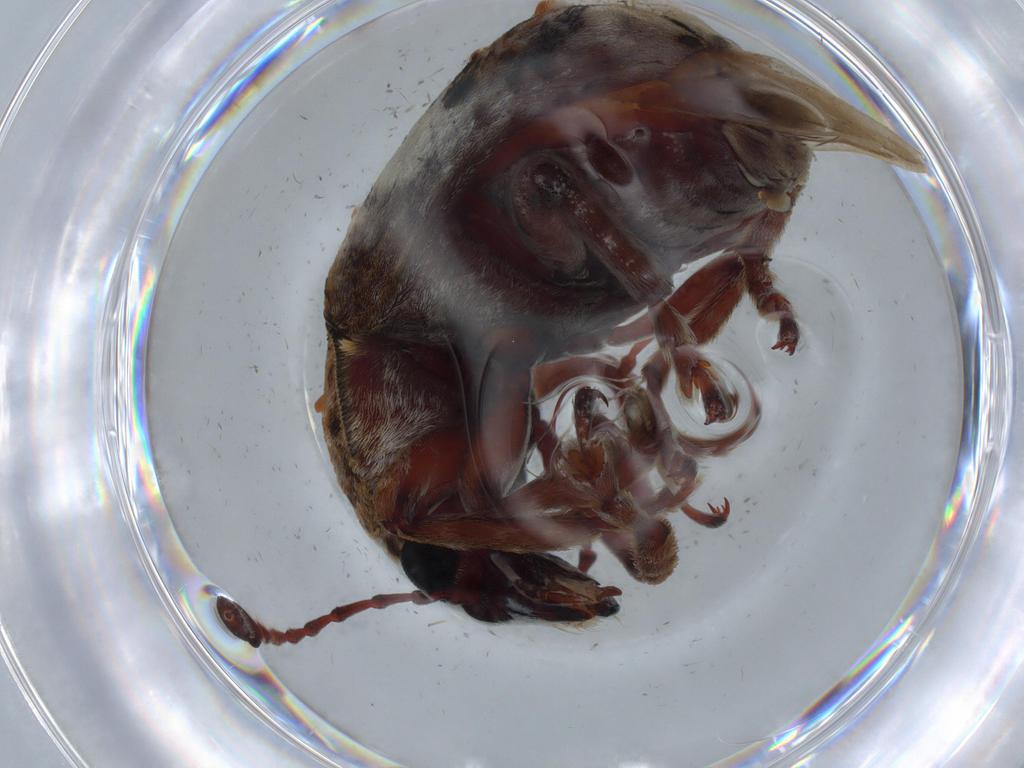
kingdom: Animalia
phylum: Arthropoda
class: Insecta
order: Coleoptera
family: Anthribidae
